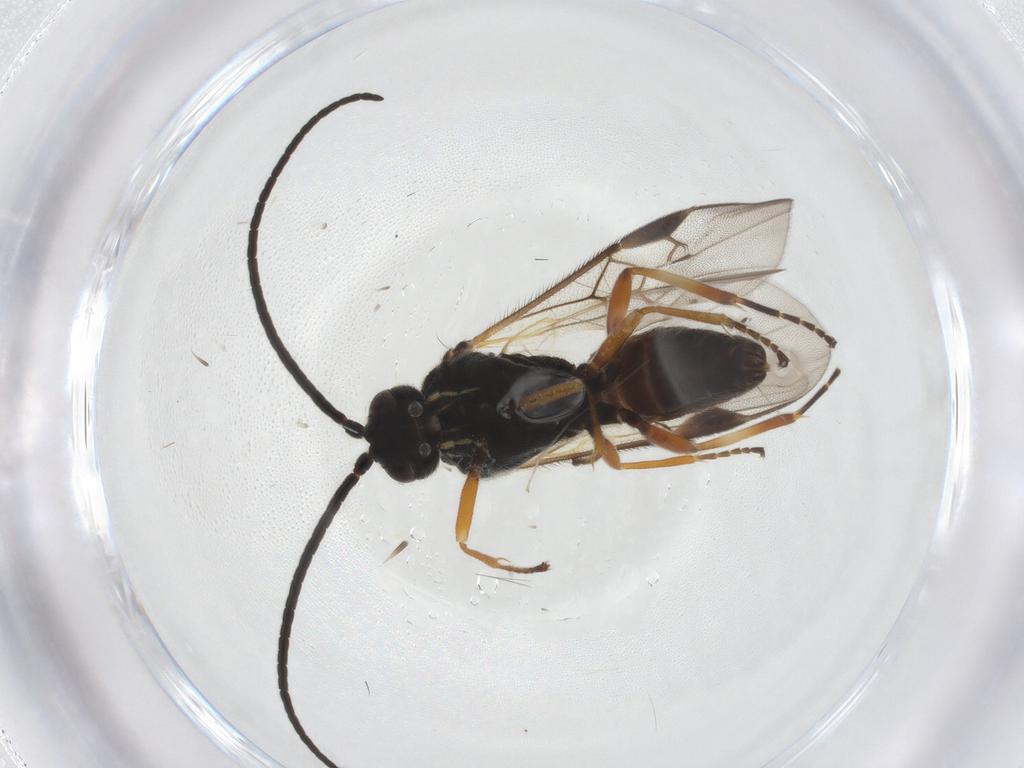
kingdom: Animalia
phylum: Arthropoda
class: Insecta
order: Hymenoptera
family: Braconidae
